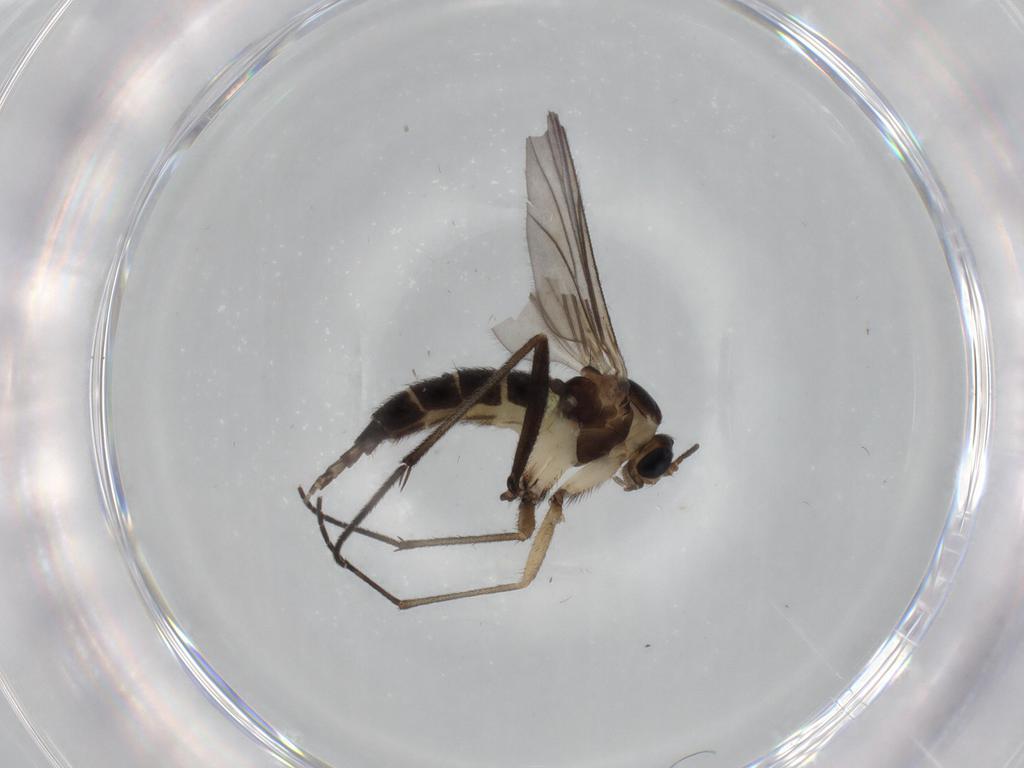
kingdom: Animalia
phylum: Arthropoda
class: Insecta
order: Diptera
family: Sciaridae
